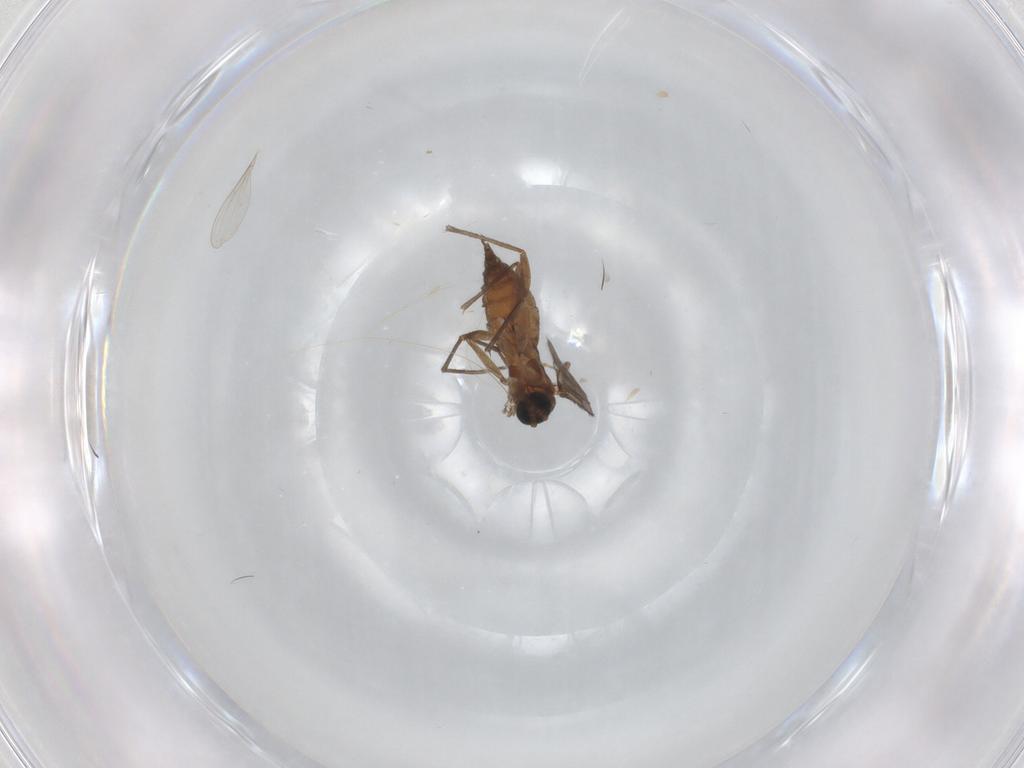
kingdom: Animalia
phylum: Arthropoda
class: Insecta
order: Diptera
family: Sciaridae
